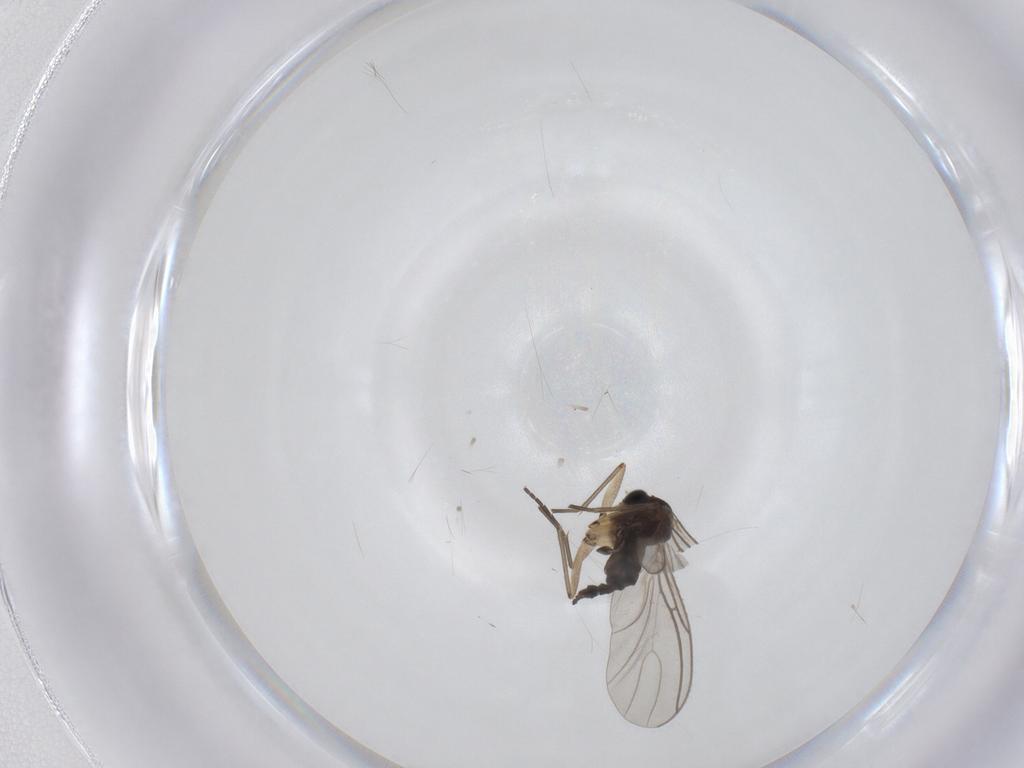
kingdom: Animalia
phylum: Arthropoda
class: Insecta
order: Diptera
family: Sciaridae
